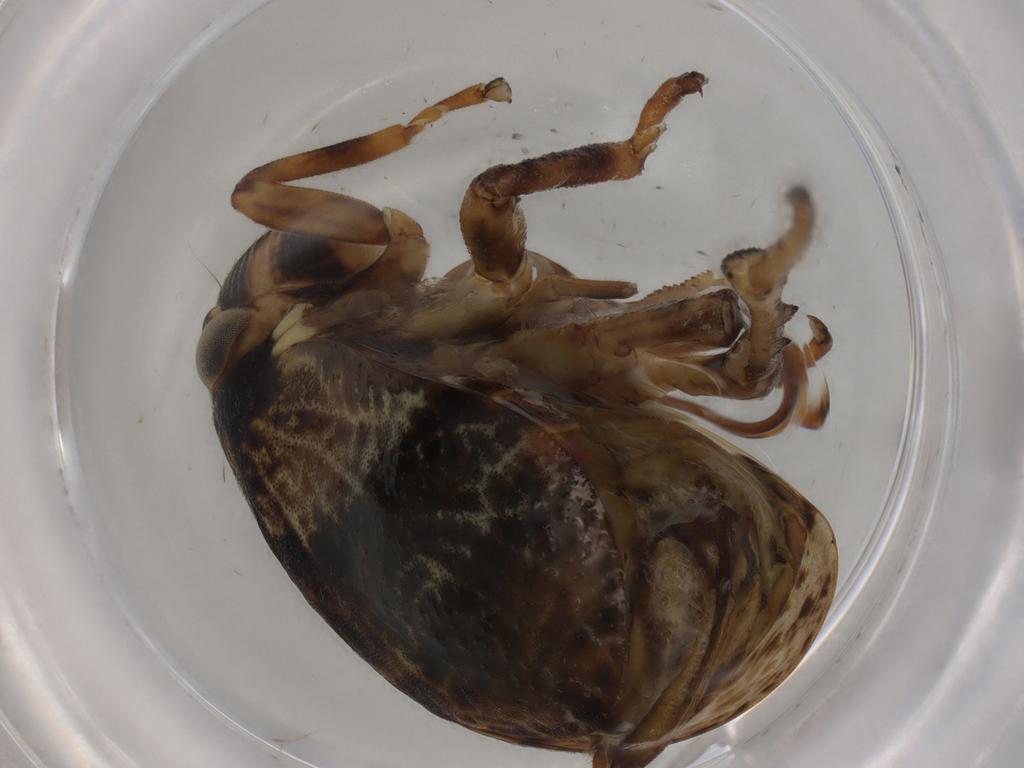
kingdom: Animalia
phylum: Arthropoda
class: Insecta
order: Hemiptera
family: Aphrophoridae
